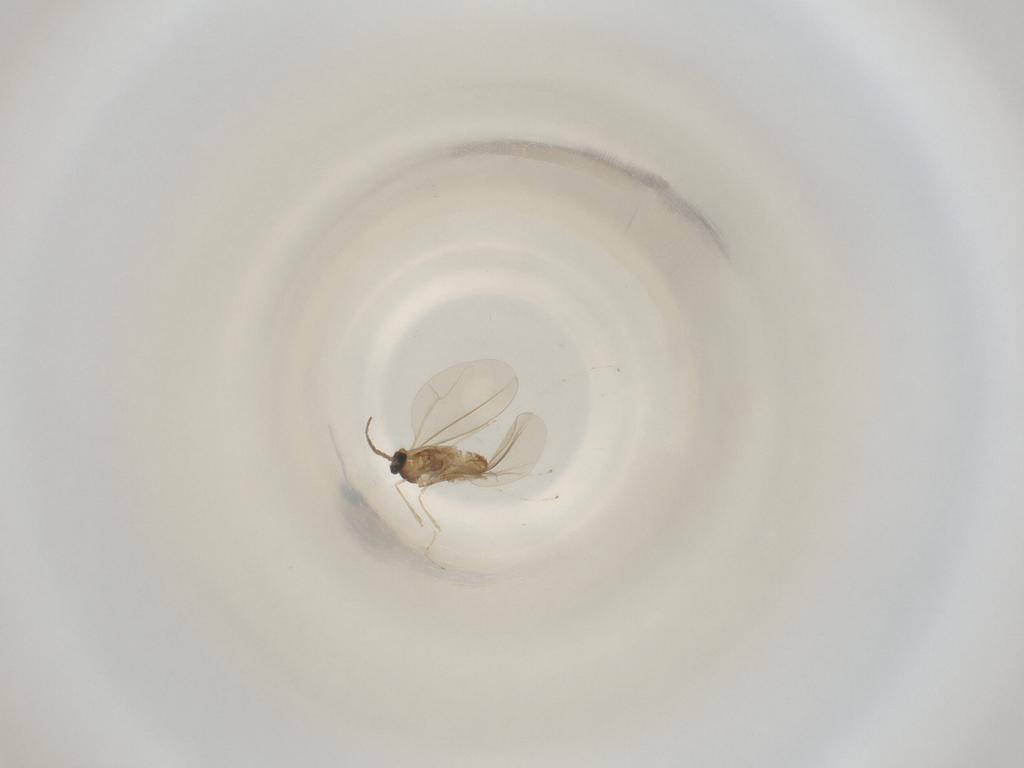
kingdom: Animalia
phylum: Arthropoda
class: Insecta
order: Diptera
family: Cecidomyiidae
